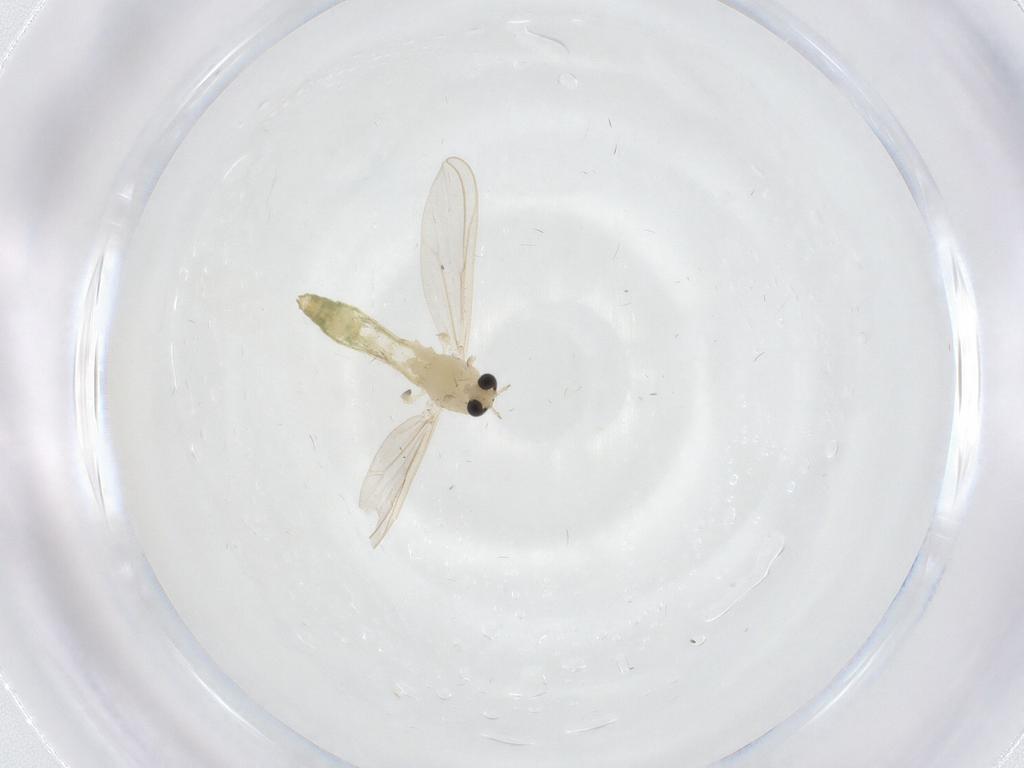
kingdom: Animalia
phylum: Arthropoda
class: Insecta
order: Diptera
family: Chironomidae
